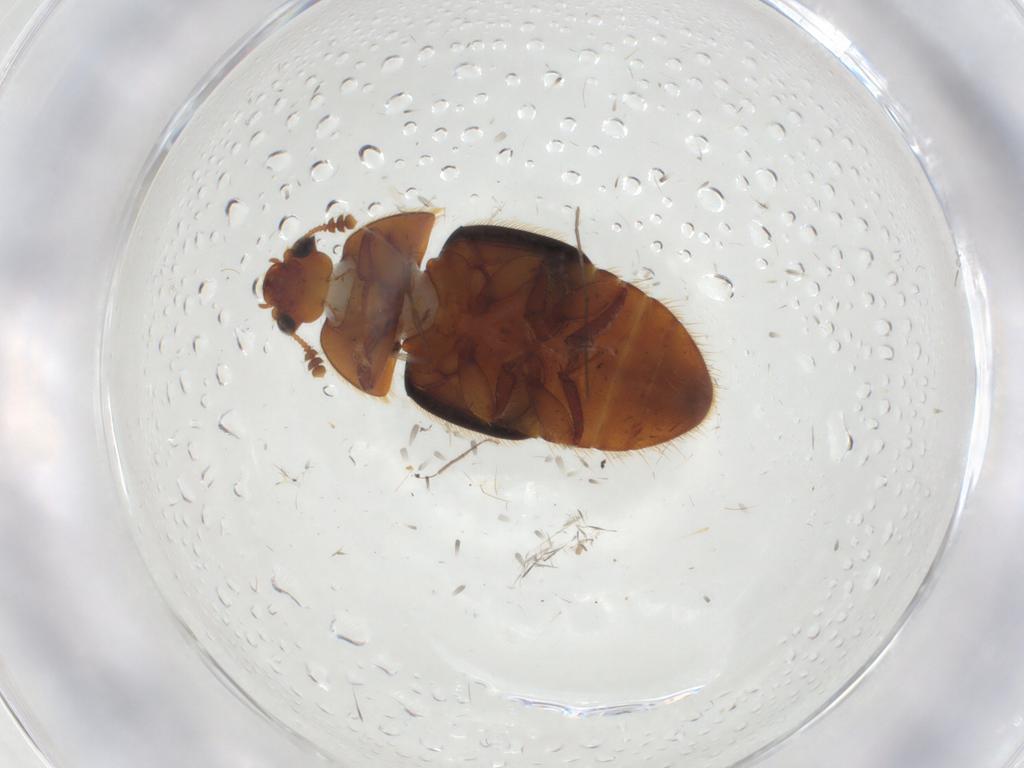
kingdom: Animalia
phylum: Arthropoda
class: Insecta
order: Coleoptera
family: Nitidulidae
